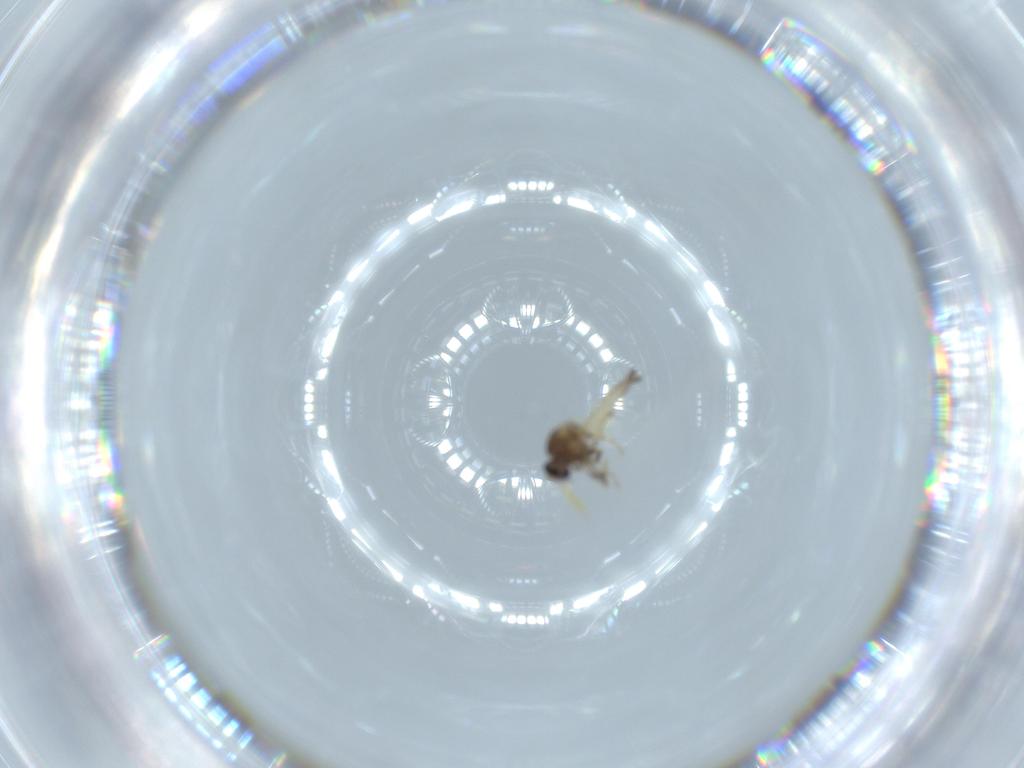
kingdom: Animalia
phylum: Arthropoda
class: Insecta
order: Diptera
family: Ceratopogonidae
